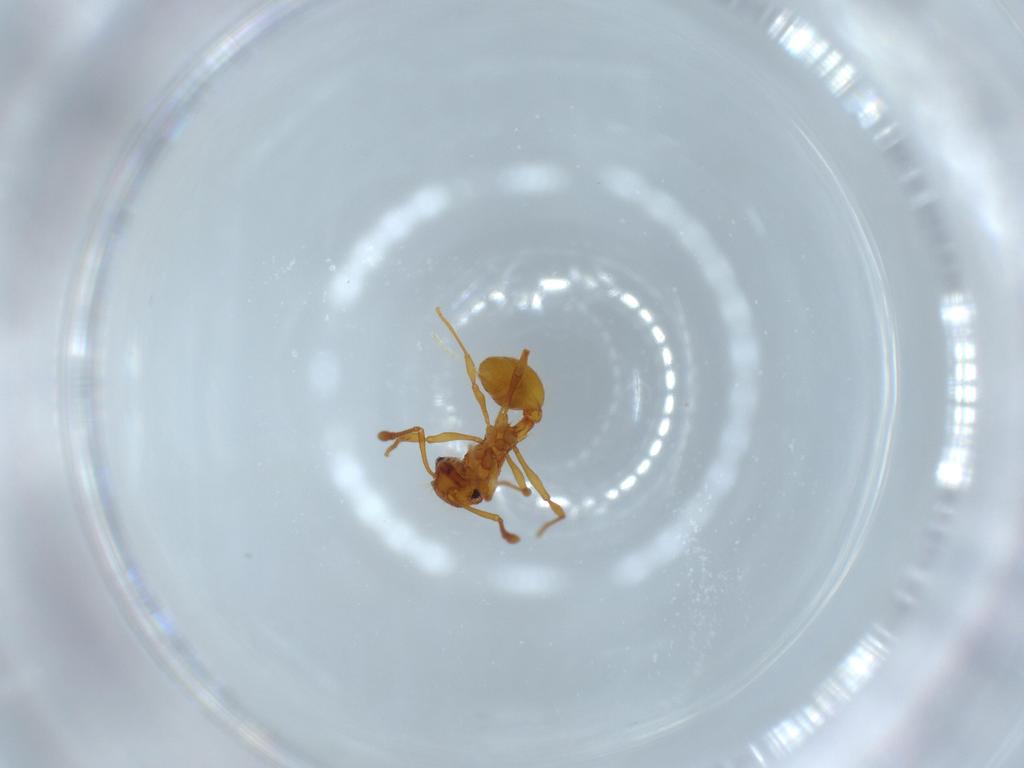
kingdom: Animalia
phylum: Arthropoda
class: Insecta
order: Hymenoptera
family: Formicidae
